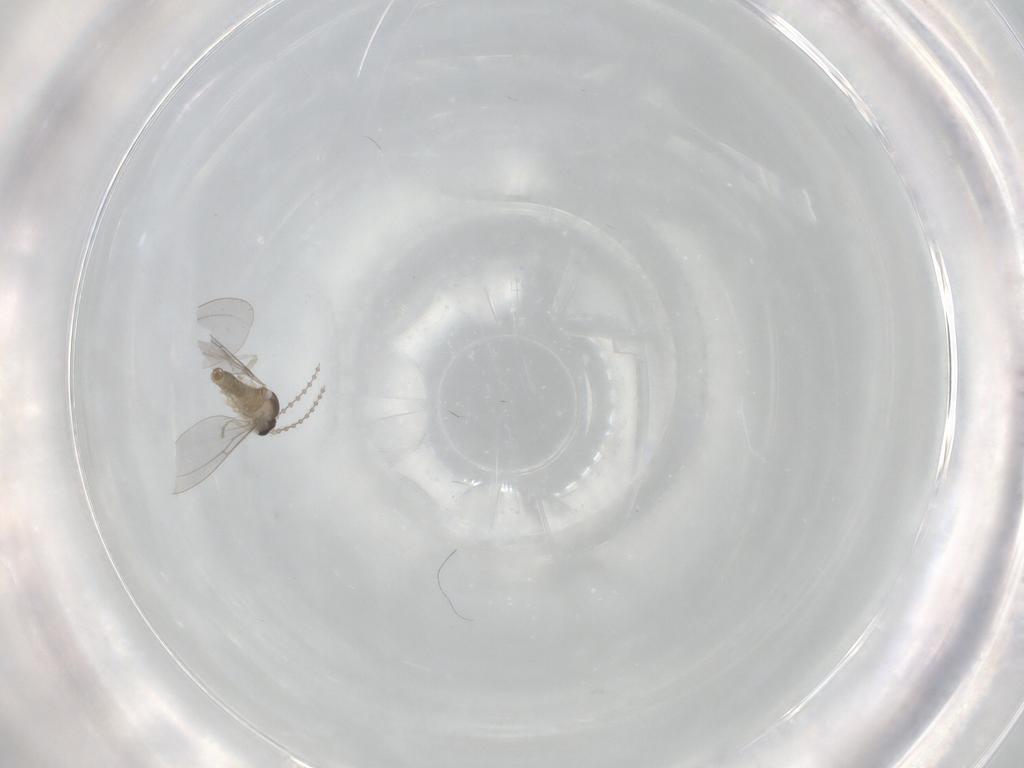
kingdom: Animalia
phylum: Arthropoda
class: Insecta
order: Diptera
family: Cecidomyiidae
